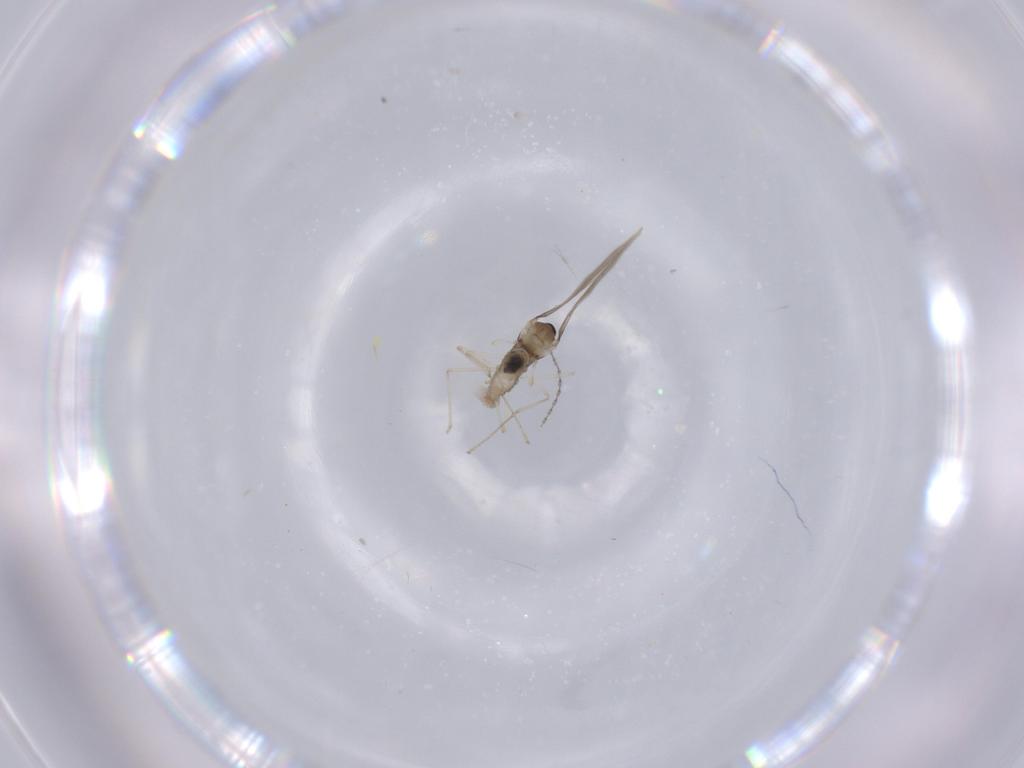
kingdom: Animalia
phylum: Arthropoda
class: Insecta
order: Diptera
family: Cecidomyiidae
